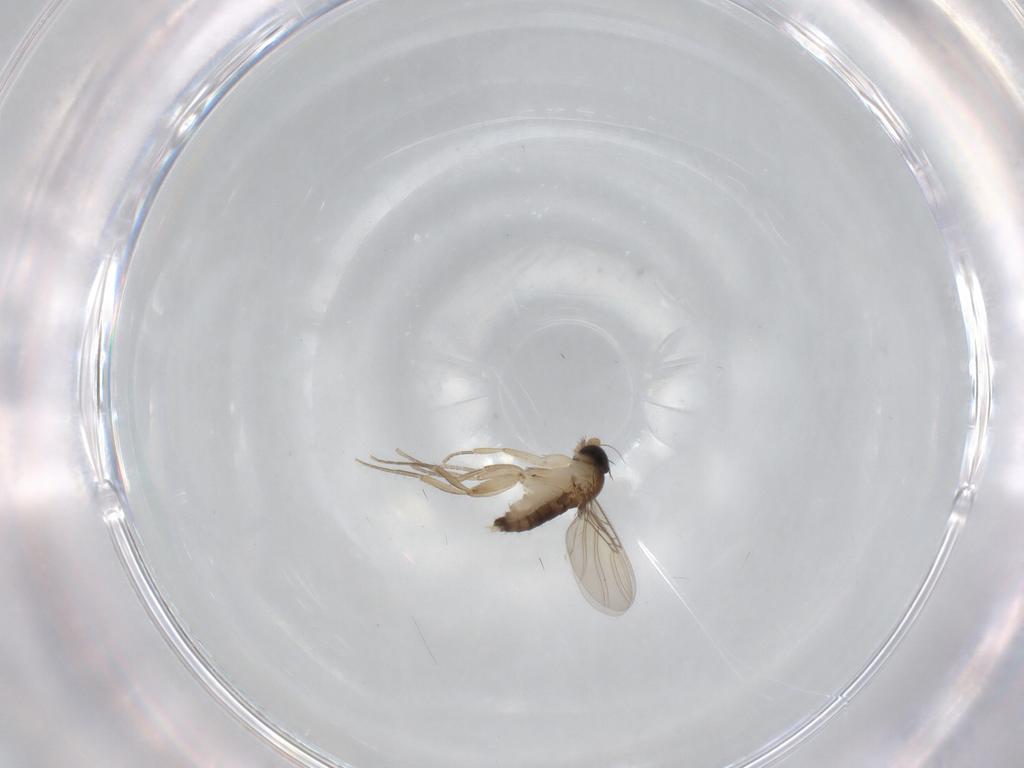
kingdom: Animalia
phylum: Arthropoda
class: Insecta
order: Diptera
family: Phoridae
